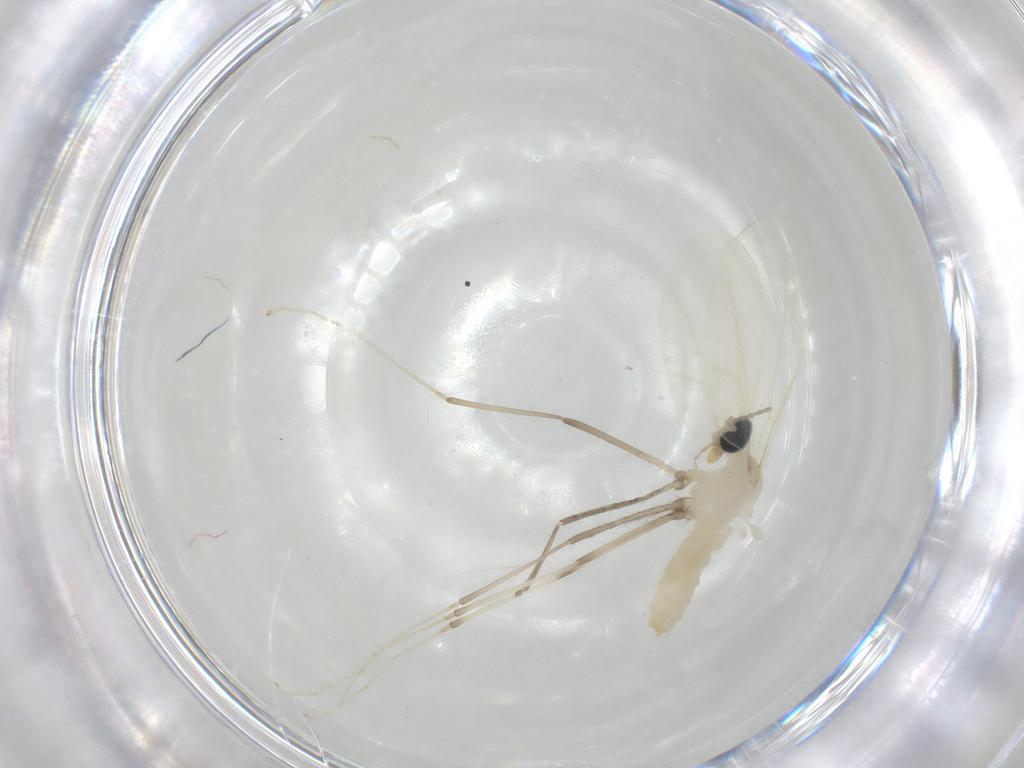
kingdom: Animalia
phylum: Arthropoda
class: Insecta
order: Diptera
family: Cecidomyiidae
